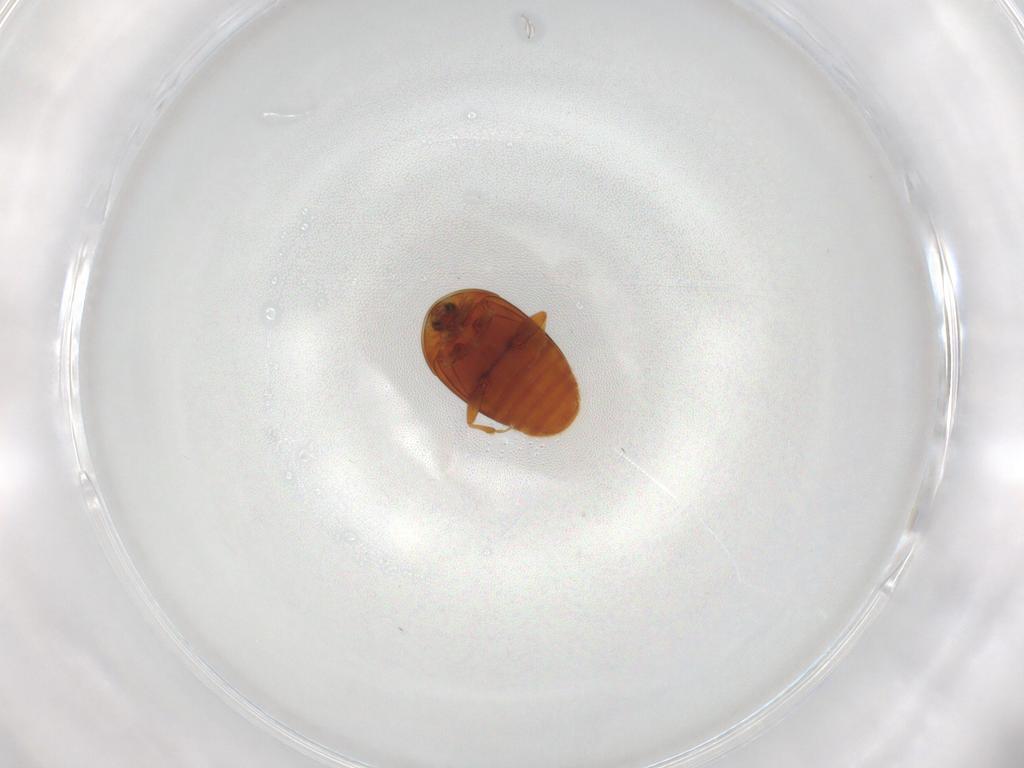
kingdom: Animalia
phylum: Arthropoda
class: Insecta
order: Coleoptera
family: Corylophidae
